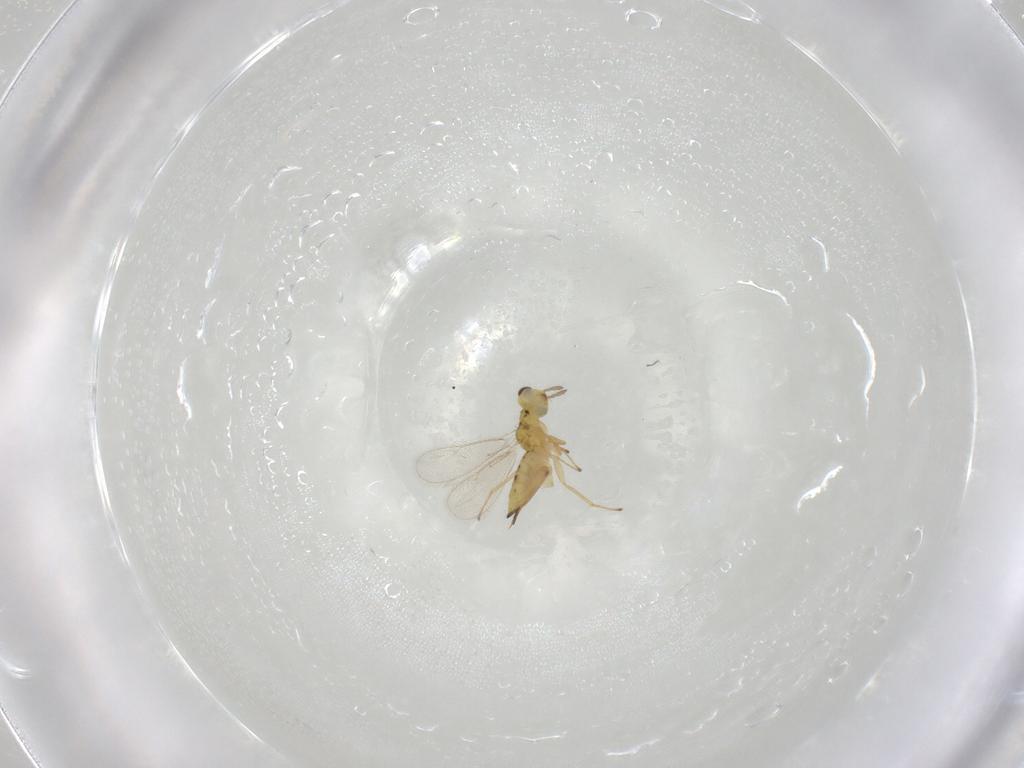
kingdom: Animalia
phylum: Arthropoda
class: Insecta
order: Hymenoptera
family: Eulophidae
